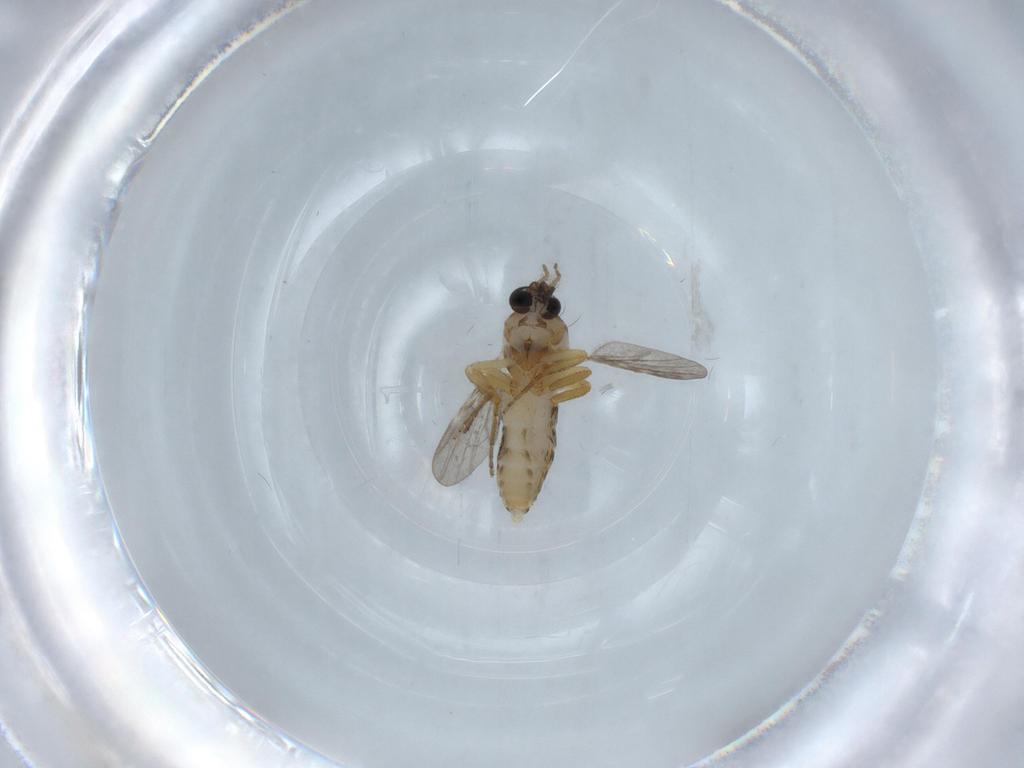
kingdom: Animalia
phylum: Arthropoda
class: Insecta
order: Diptera
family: Ceratopogonidae
